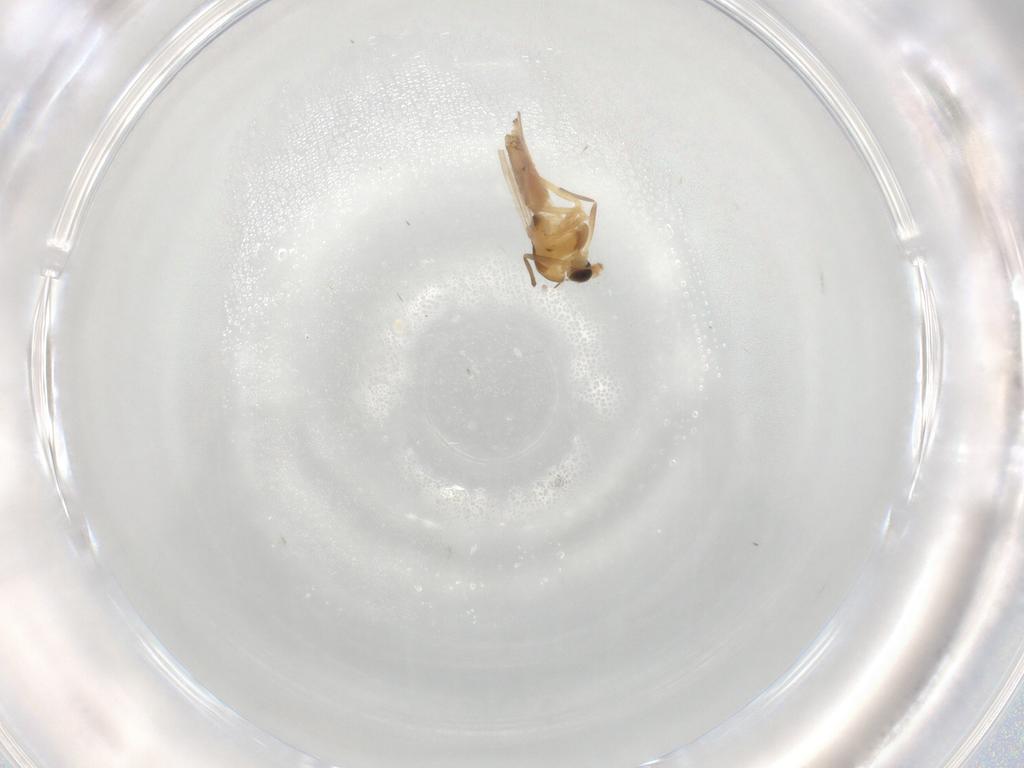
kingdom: Animalia
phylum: Arthropoda
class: Insecta
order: Diptera
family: Chironomidae
